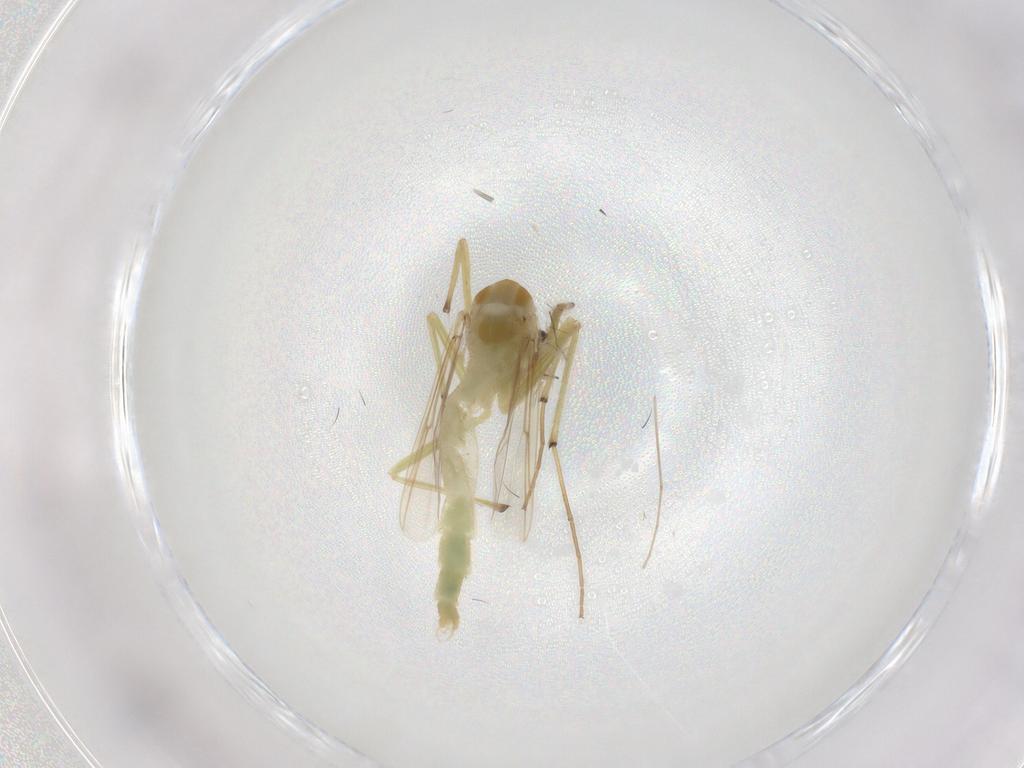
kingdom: Animalia
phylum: Arthropoda
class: Insecta
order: Diptera
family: Chironomidae
